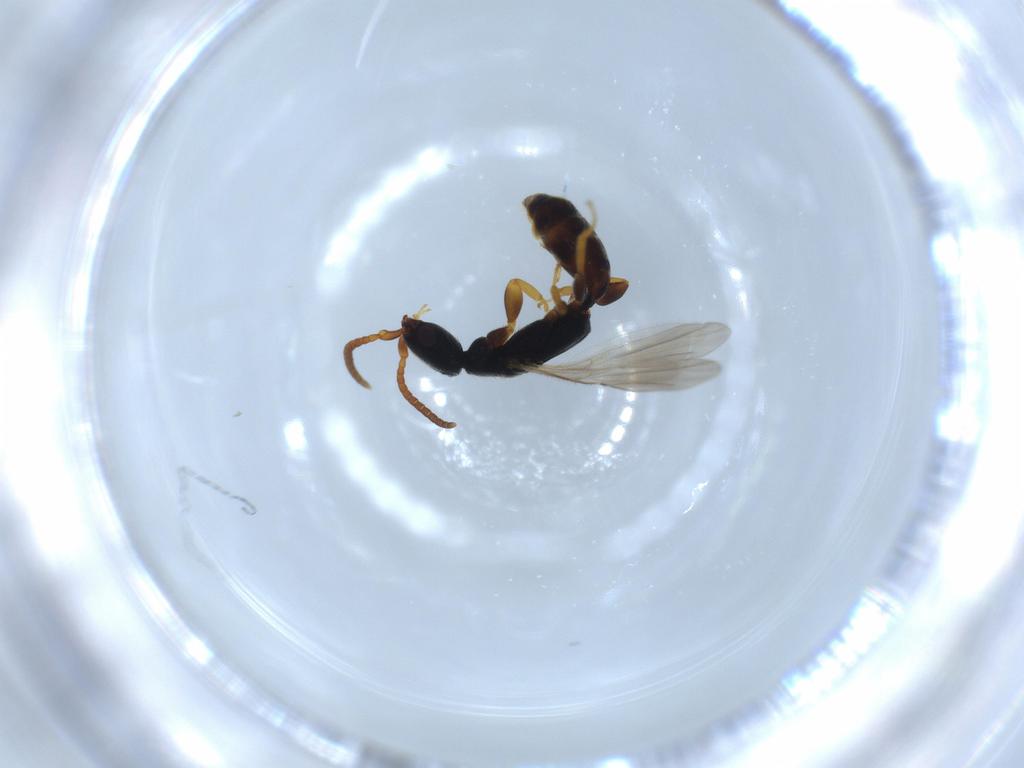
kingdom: Animalia
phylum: Arthropoda
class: Insecta
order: Hymenoptera
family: Bethylidae
